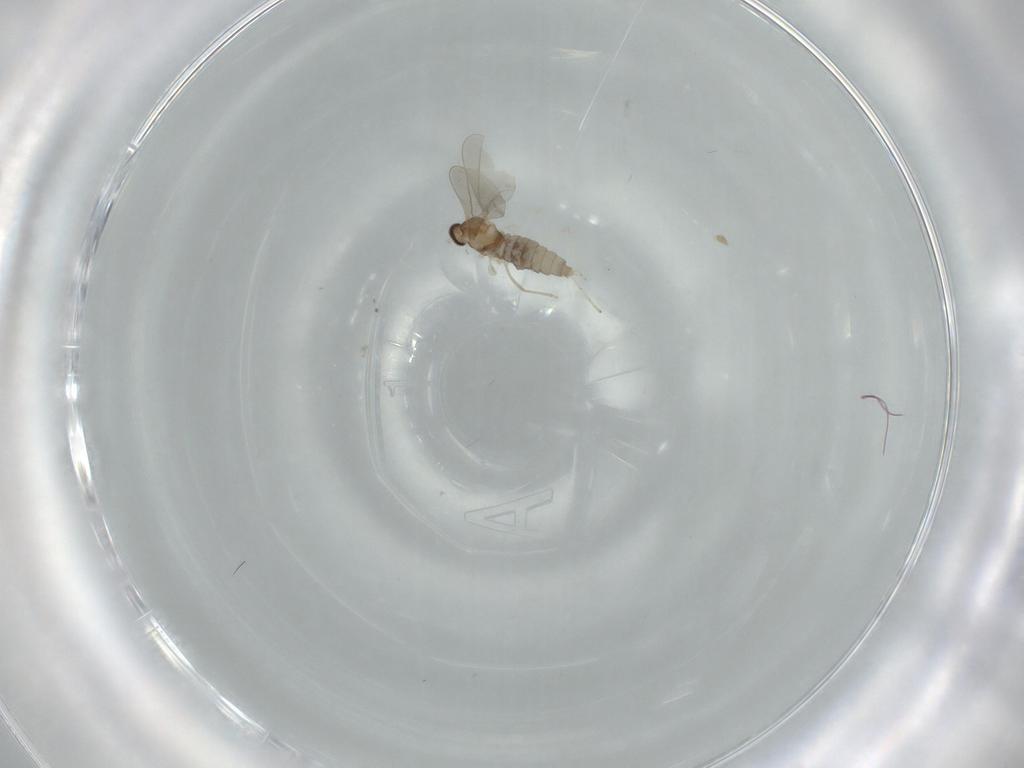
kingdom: Animalia
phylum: Arthropoda
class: Insecta
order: Diptera
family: Cecidomyiidae
